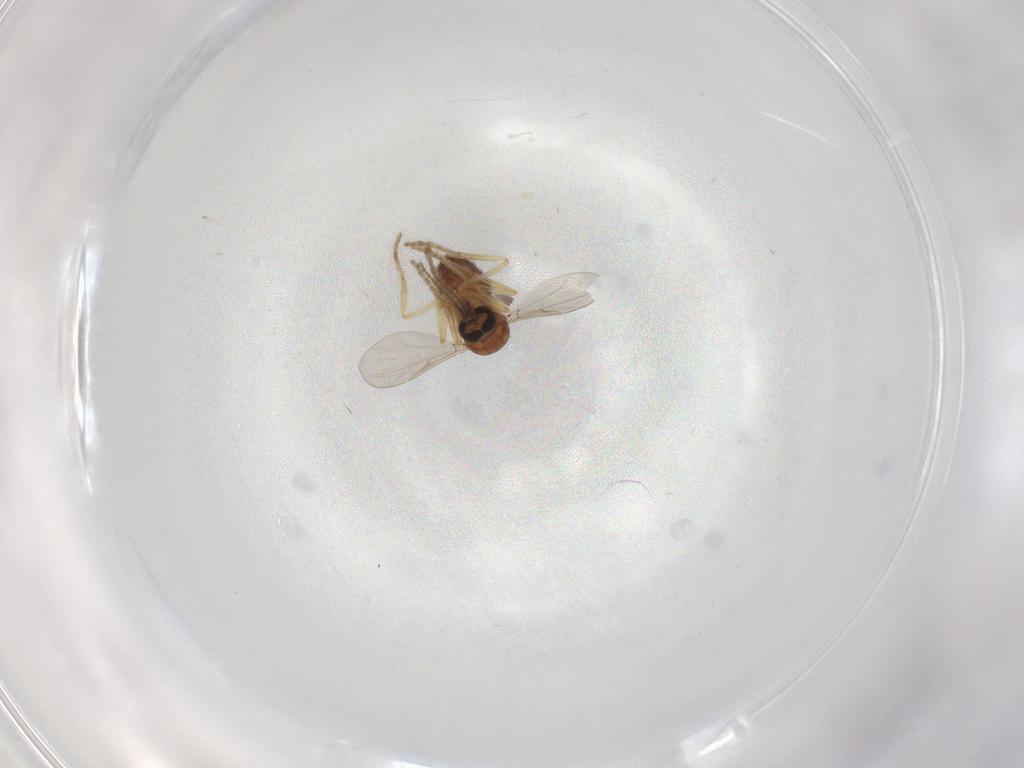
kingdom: Animalia
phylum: Arthropoda
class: Insecta
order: Diptera
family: Ceratopogonidae
